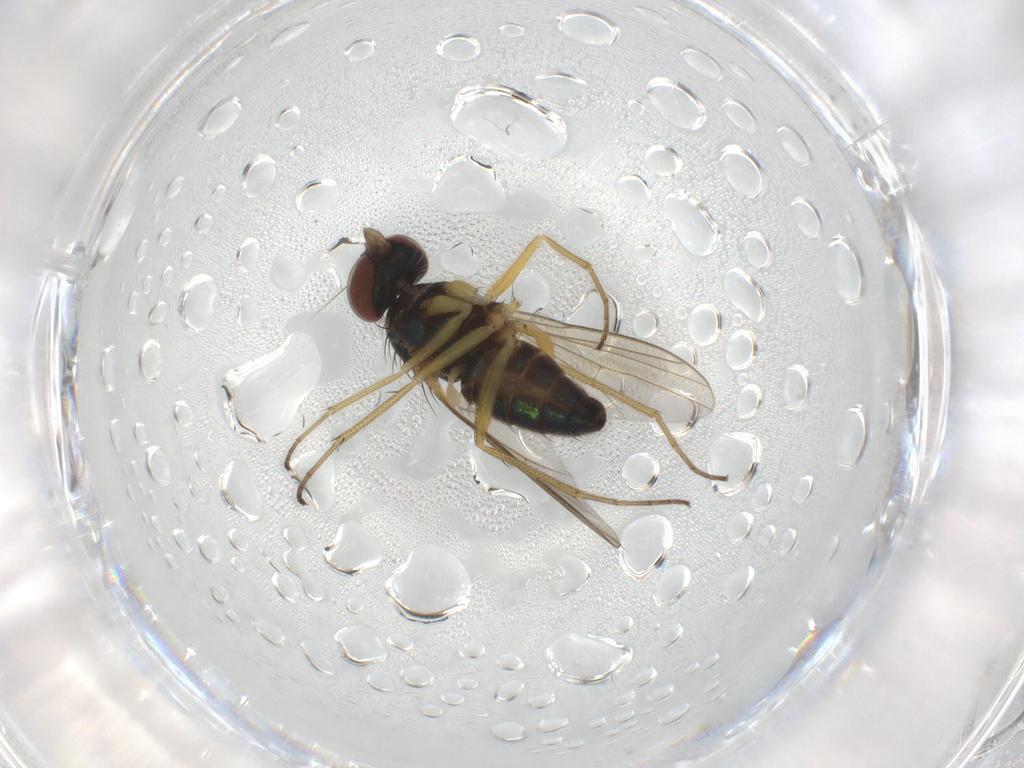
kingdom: Animalia
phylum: Arthropoda
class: Insecta
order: Diptera
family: Dolichopodidae
